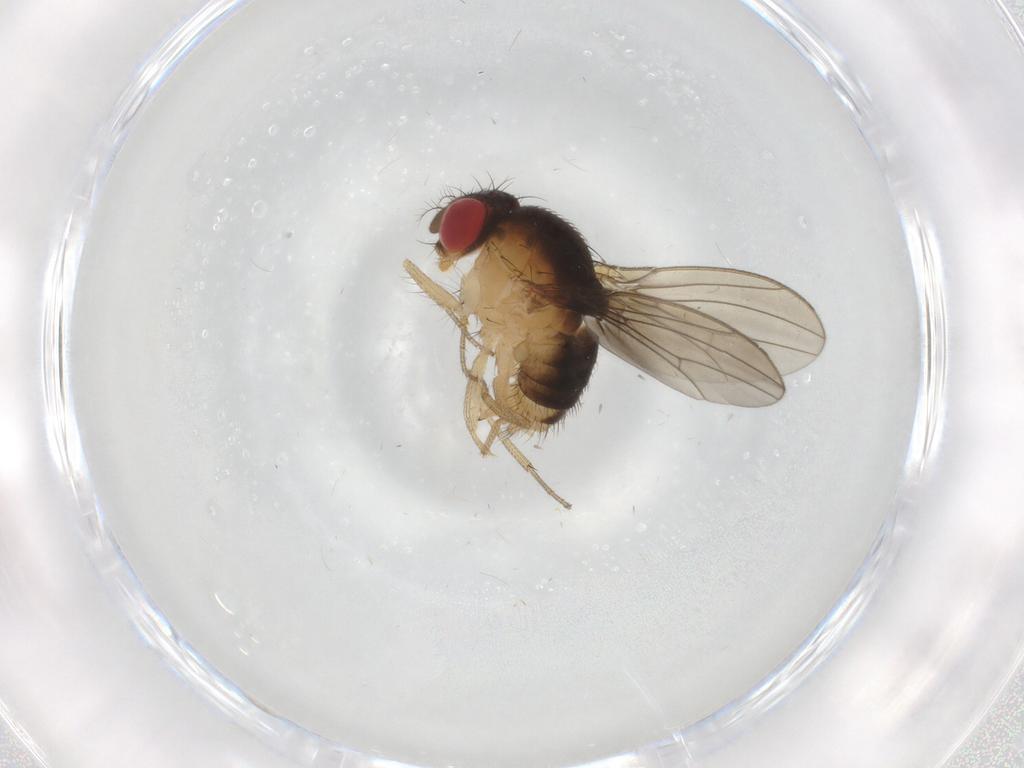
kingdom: Animalia
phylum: Arthropoda
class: Insecta
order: Diptera
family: Drosophilidae
